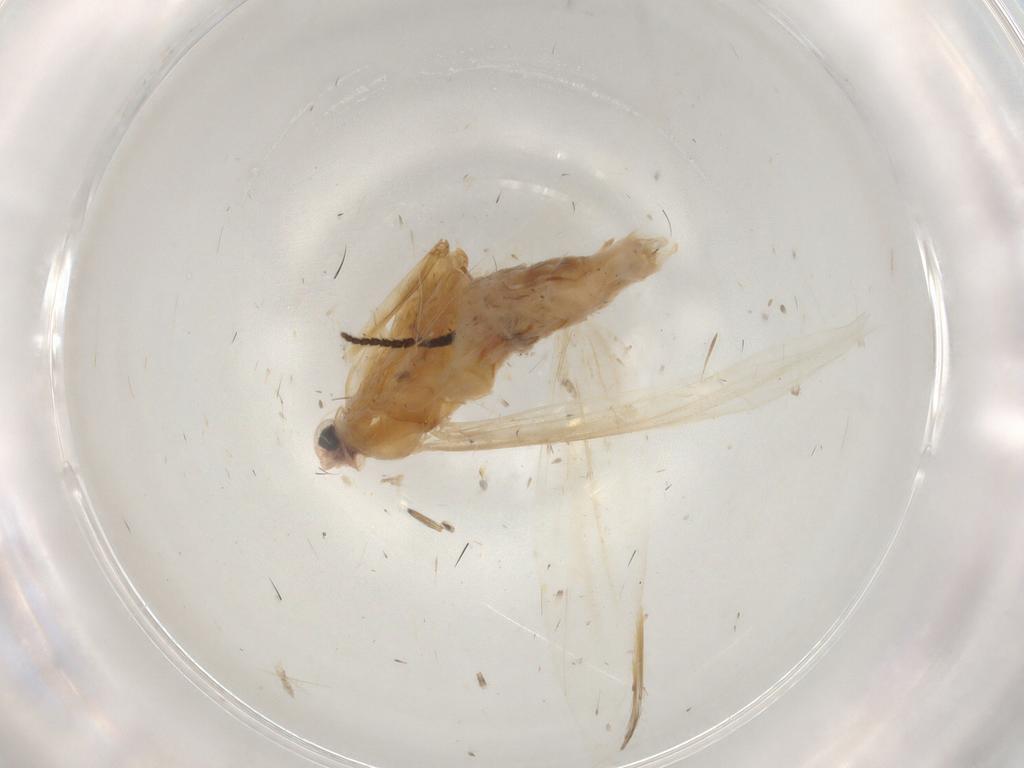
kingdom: Animalia
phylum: Arthropoda
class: Insecta
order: Lepidoptera
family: Xyloryctidae
